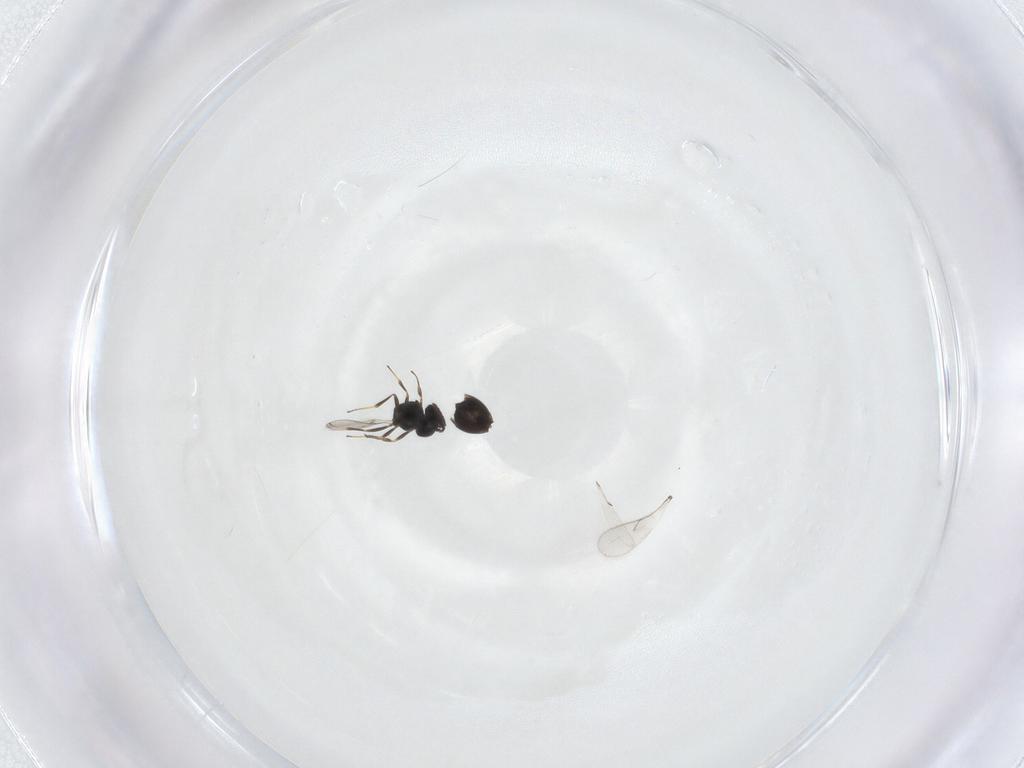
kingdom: Animalia
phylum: Arthropoda
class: Insecta
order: Hymenoptera
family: Scelionidae
